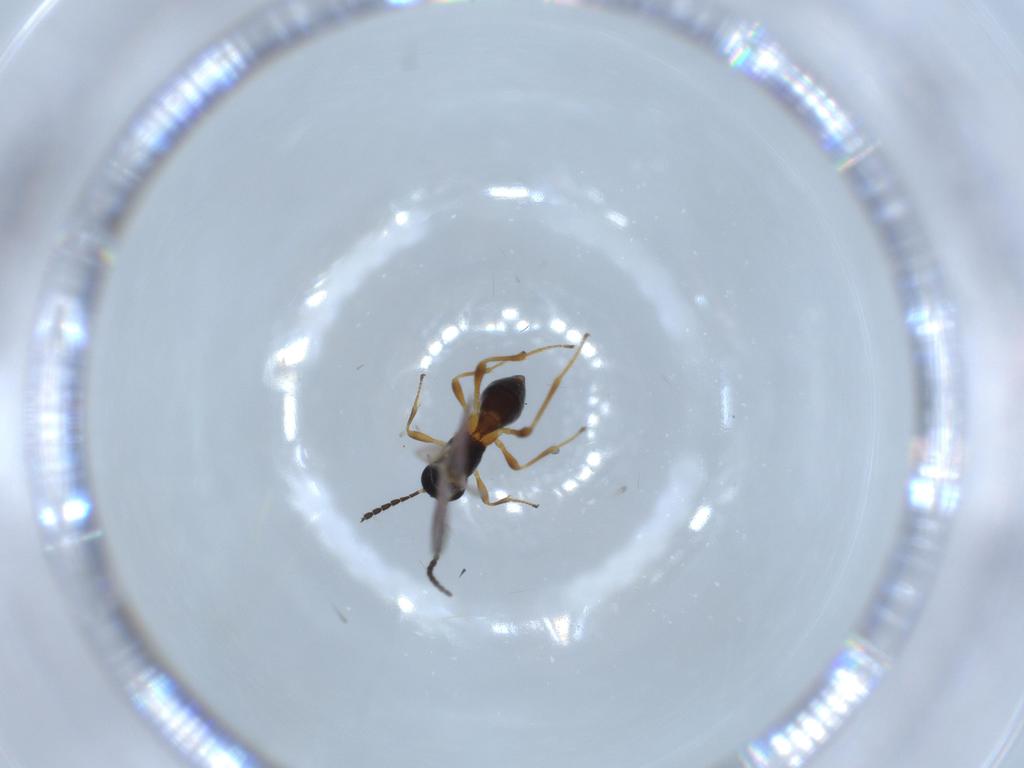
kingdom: Animalia
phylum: Arthropoda
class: Insecta
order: Hymenoptera
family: Braconidae
